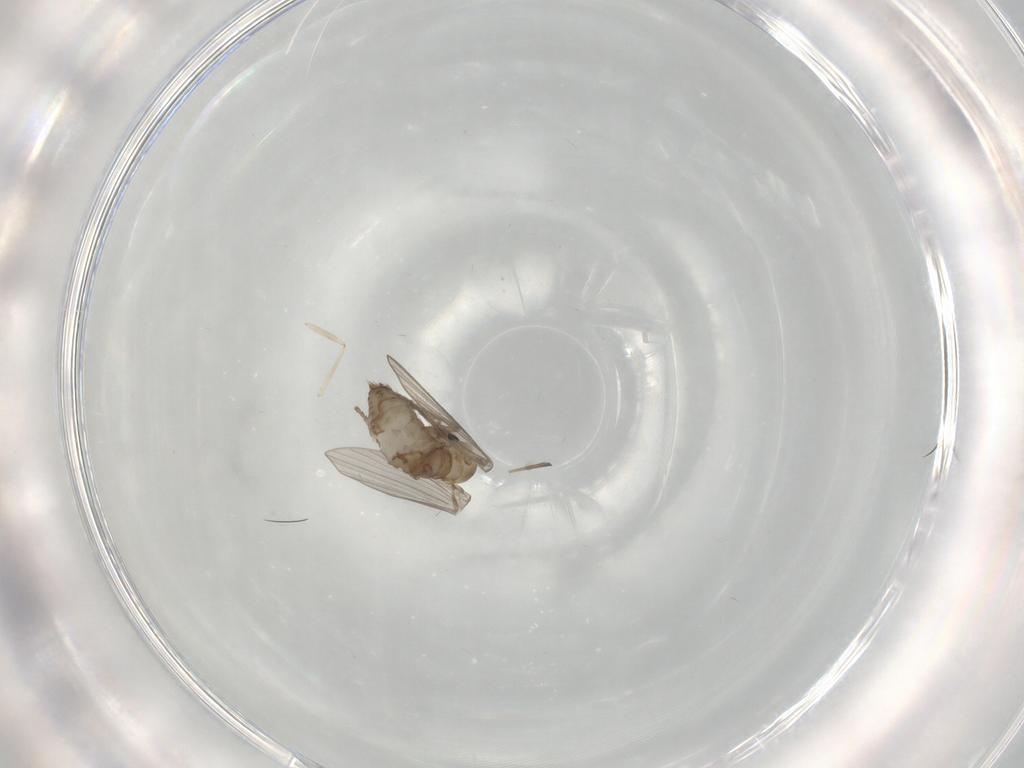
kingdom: Animalia
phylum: Arthropoda
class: Insecta
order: Diptera
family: Psychodidae
